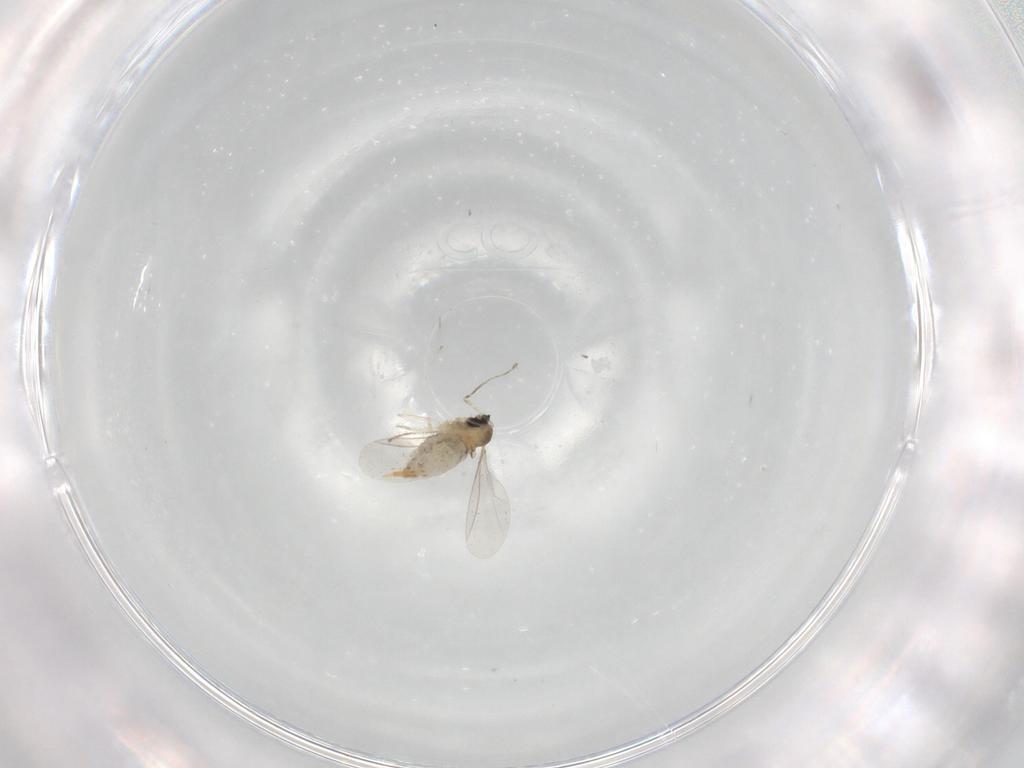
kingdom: Animalia
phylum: Arthropoda
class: Insecta
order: Diptera
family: Cecidomyiidae
